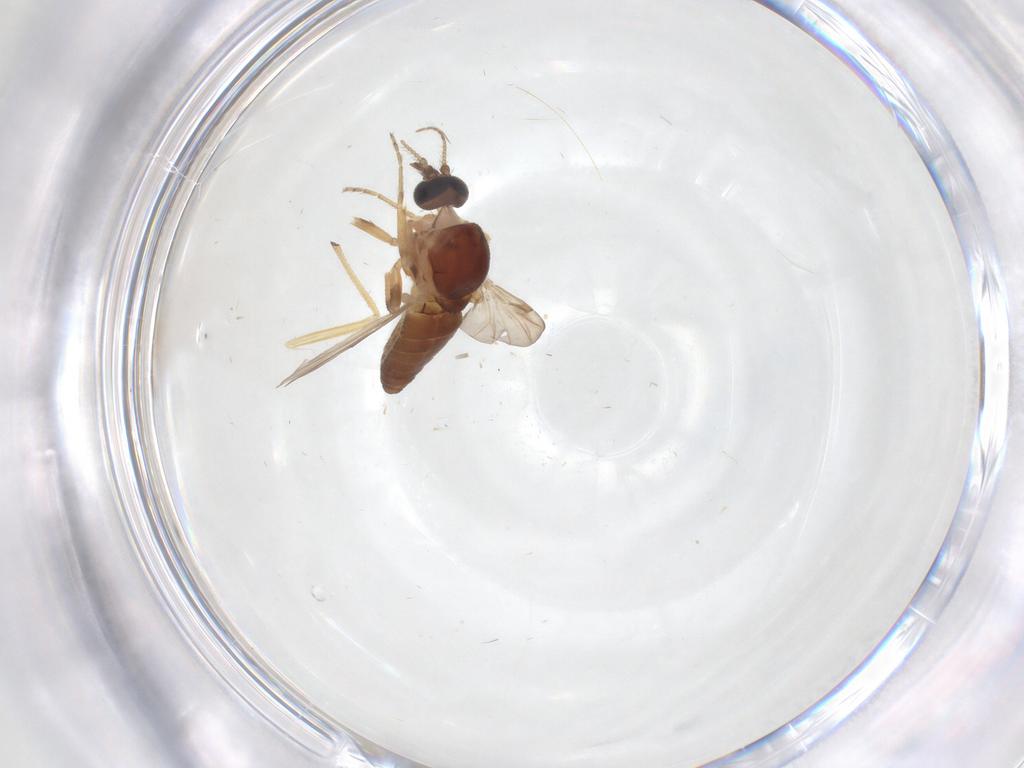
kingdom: Animalia
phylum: Arthropoda
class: Insecta
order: Diptera
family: Ceratopogonidae
